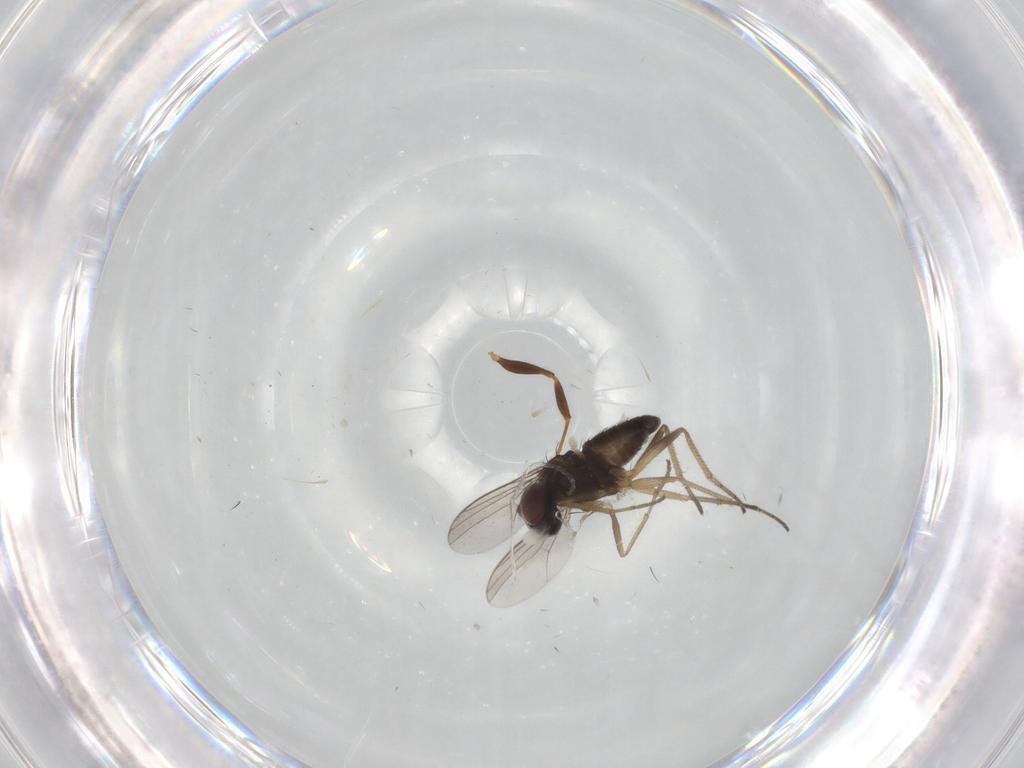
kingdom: Animalia
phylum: Arthropoda
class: Insecta
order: Diptera
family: Dolichopodidae
